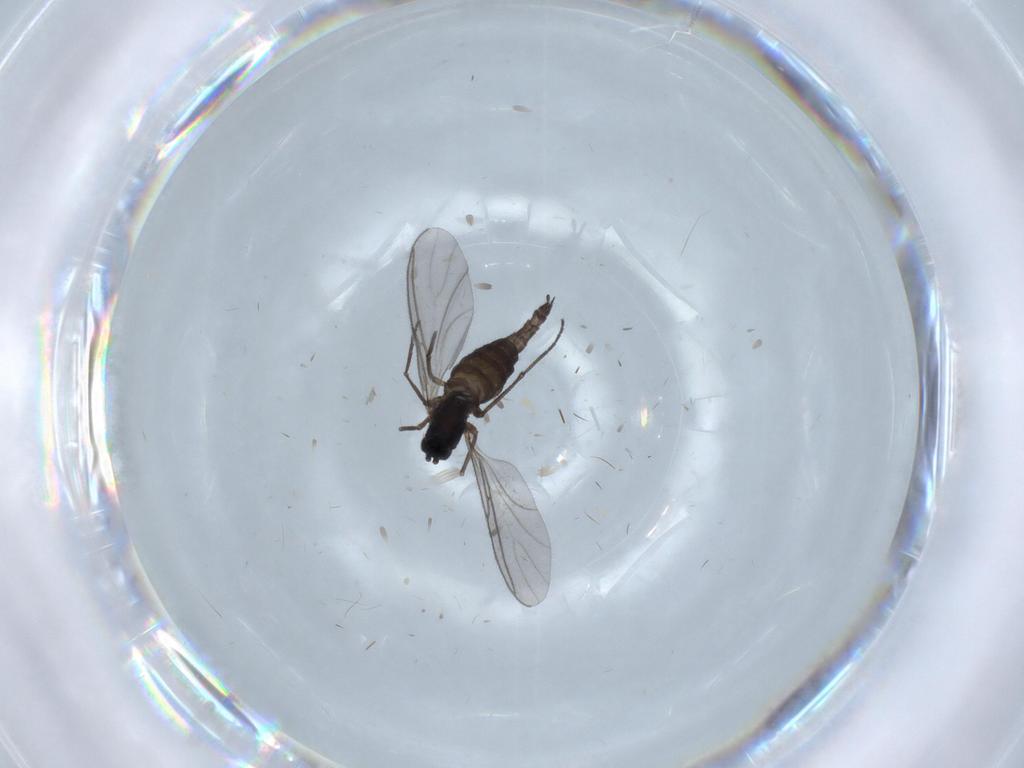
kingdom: Animalia
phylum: Arthropoda
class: Insecta
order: Diptera
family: Sciaridae
